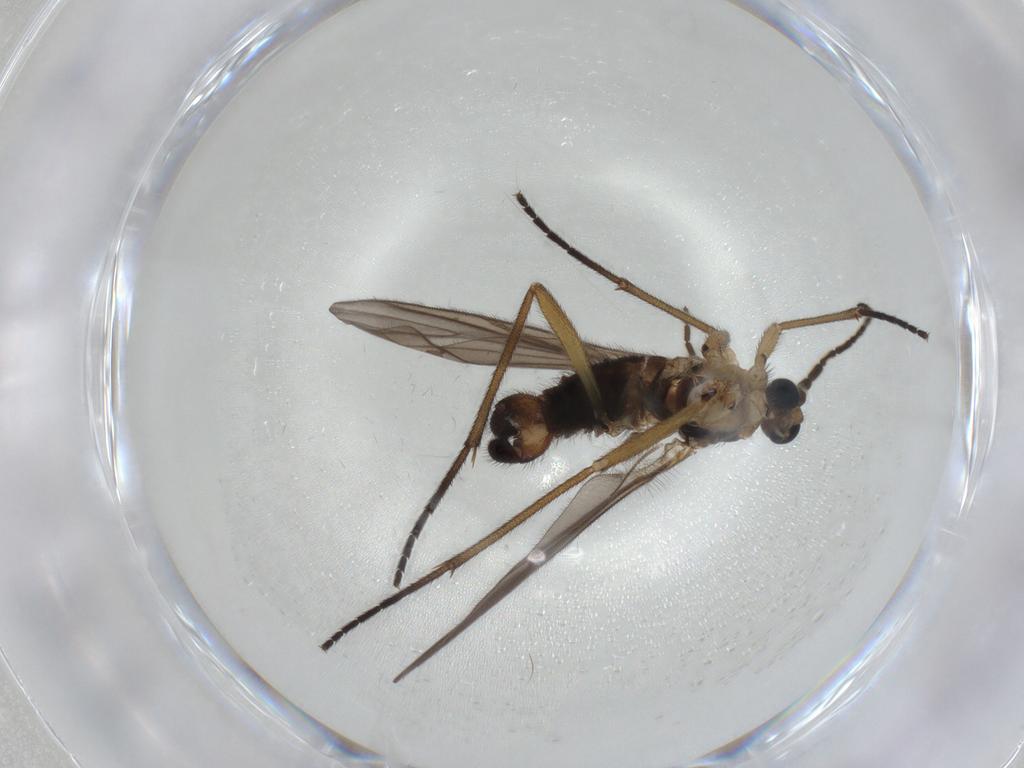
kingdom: Animalia
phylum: Arthropoda
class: Insecta
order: Diptera
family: Sciaridae
